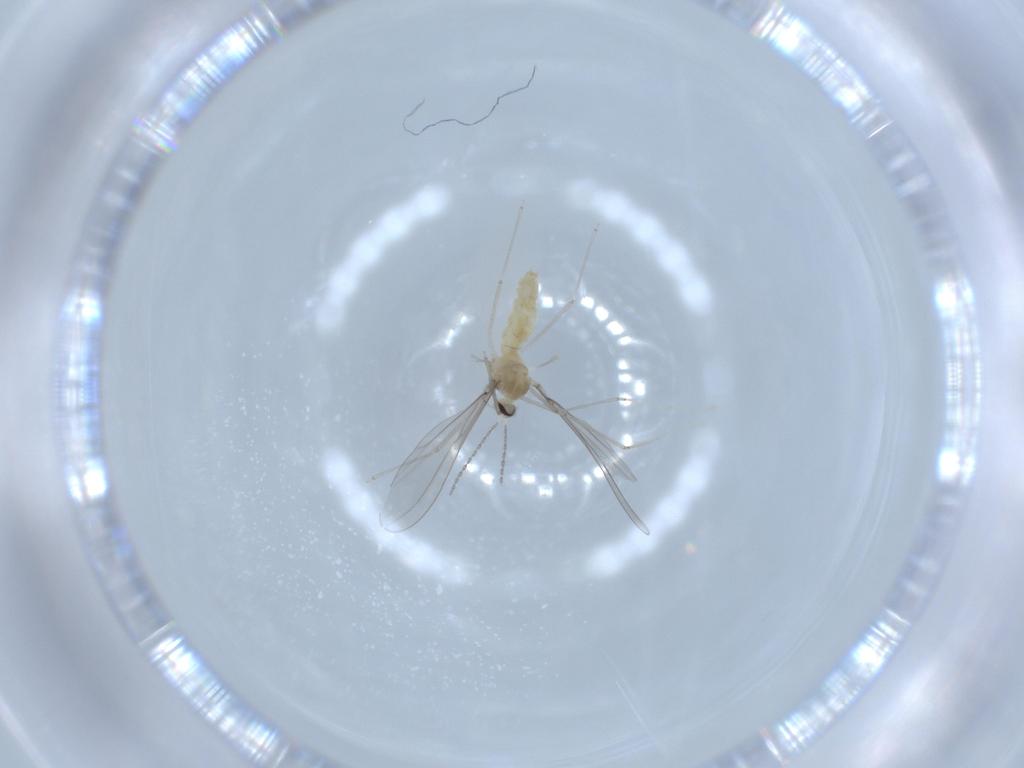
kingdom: Animalia
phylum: Arthropoda
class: Insecta
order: Diptera
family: Cecidomyiidae
